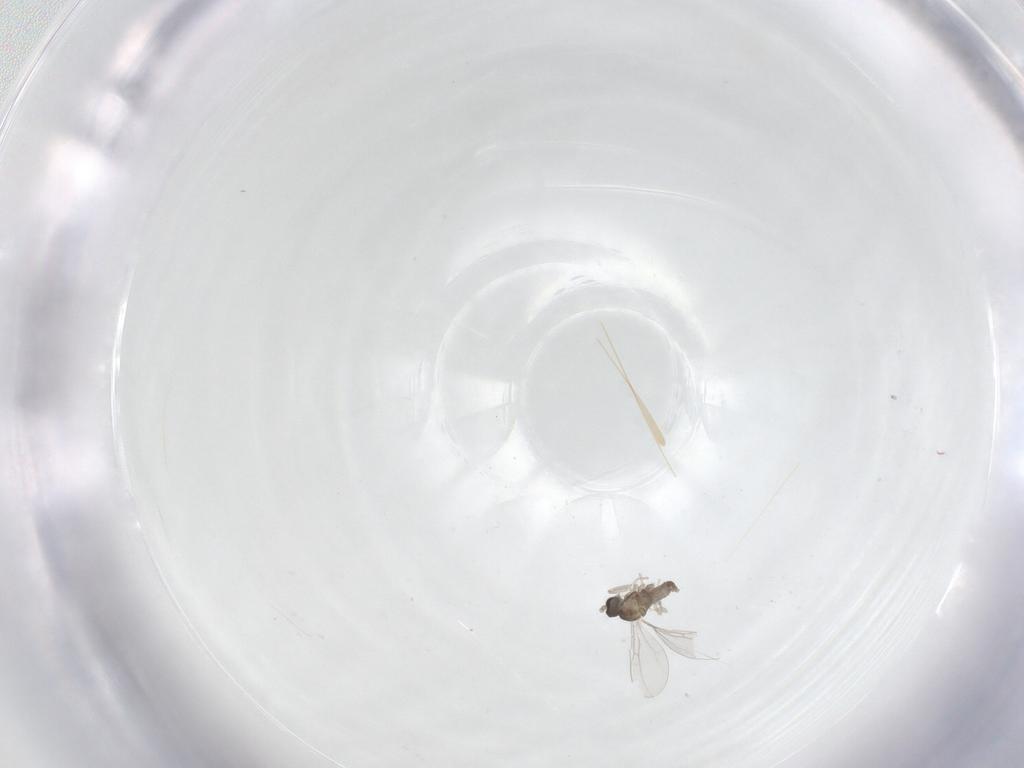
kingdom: Animalia
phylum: Arthropoda
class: Insecta
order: Diptera
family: Cecidomyiidae
